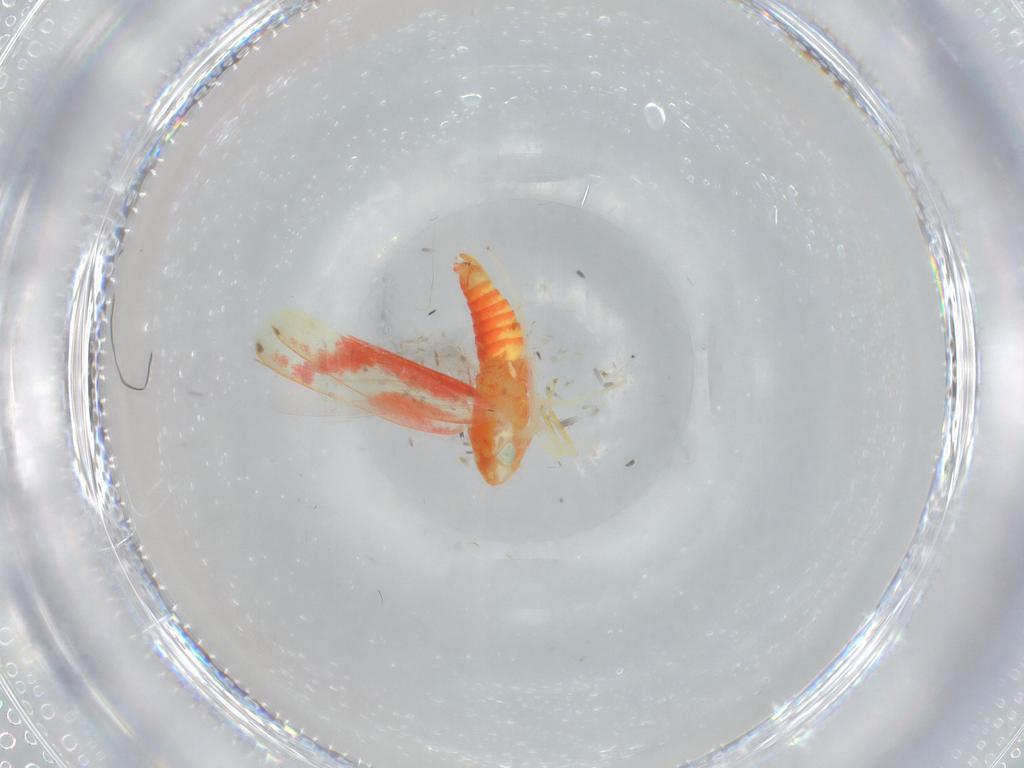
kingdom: Animalia
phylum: Arthropoda
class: Insecta
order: Hemiptera
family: Cicadellidae
